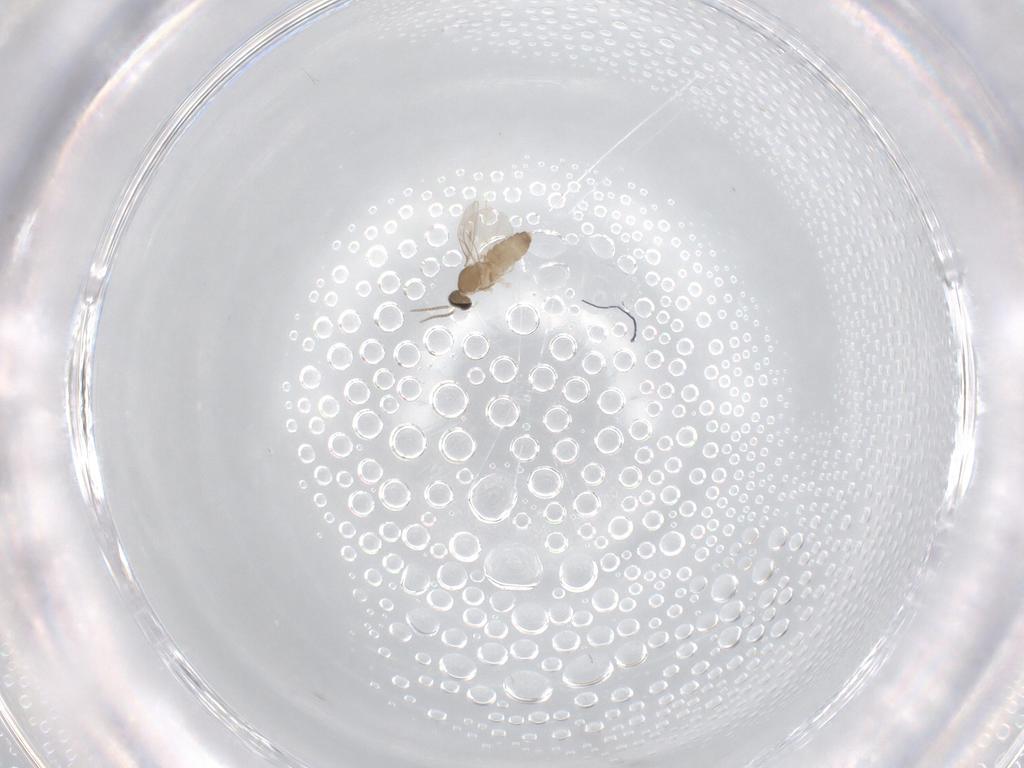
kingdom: Animalia
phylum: Arthropoda
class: Insecta
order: Diptera
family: Cecidomyiidae
